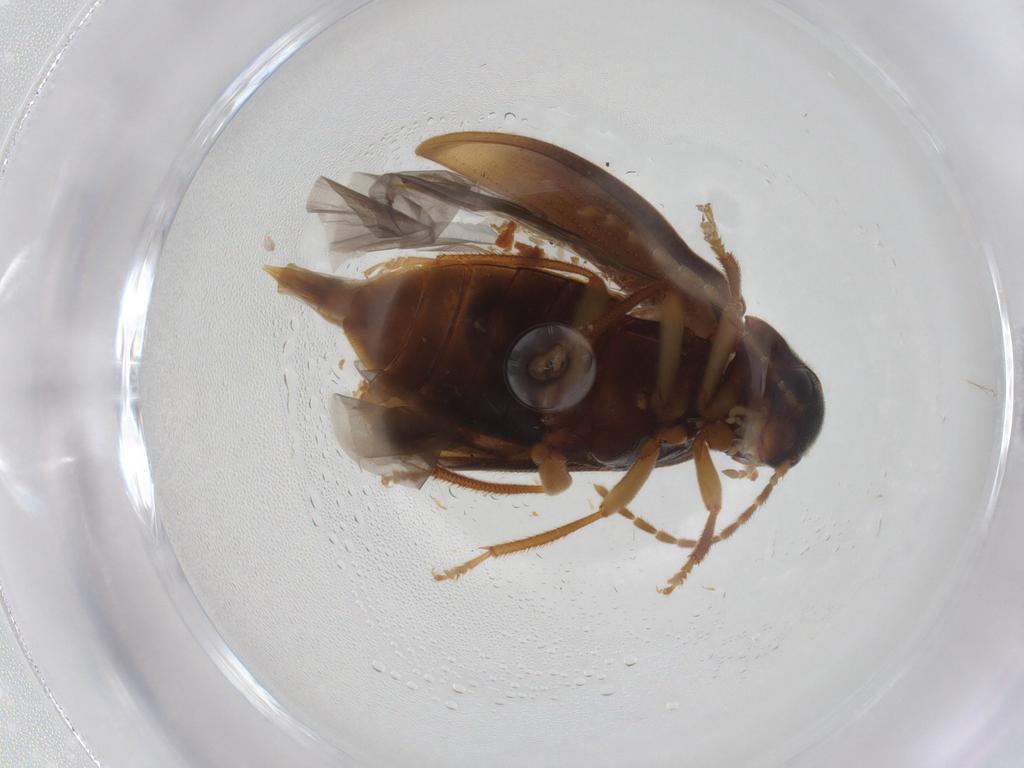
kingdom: Animalia
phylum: Arthropoda
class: Insecta
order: Coleoptera
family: Ptilodactylidae
